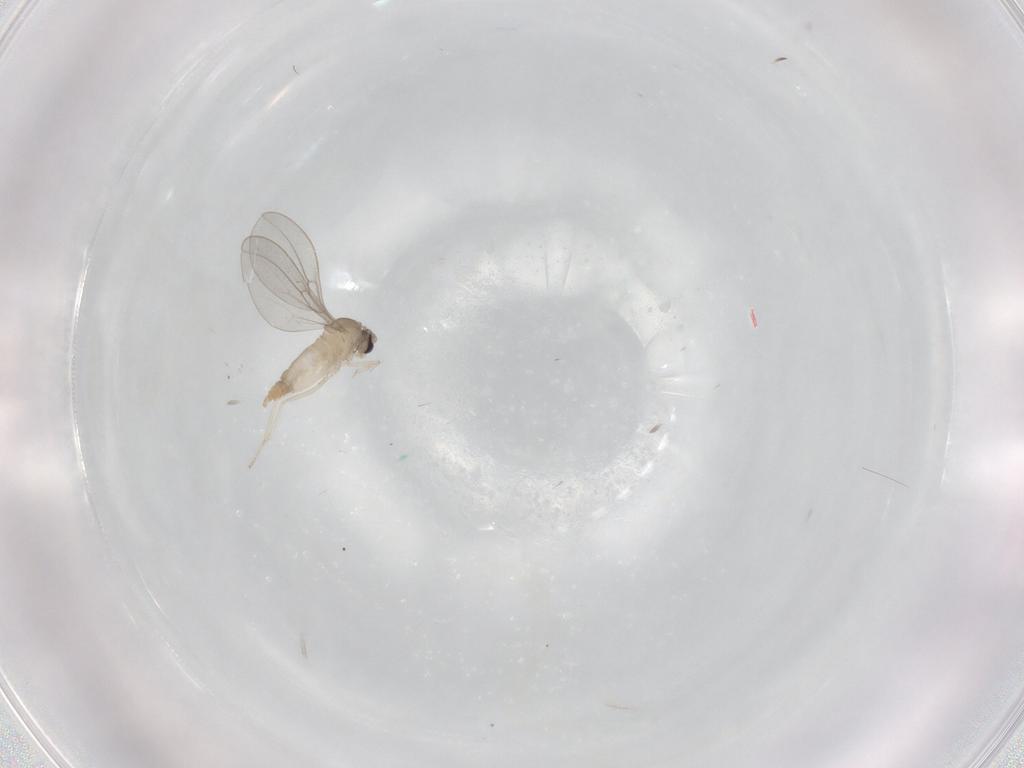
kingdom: Animalia
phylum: Arthropoda
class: Insecta
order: Diptera
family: Cecidomyiidae
